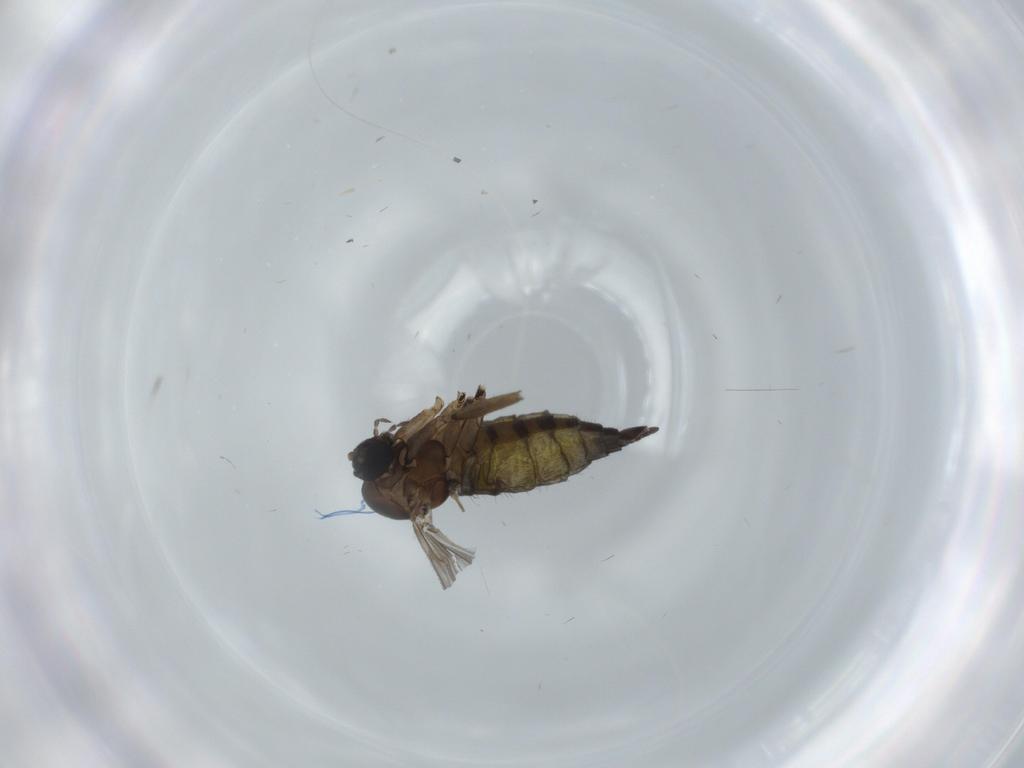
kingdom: Animalia
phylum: Arthropoda
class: Insecta
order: Diptera
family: Sciaridae
